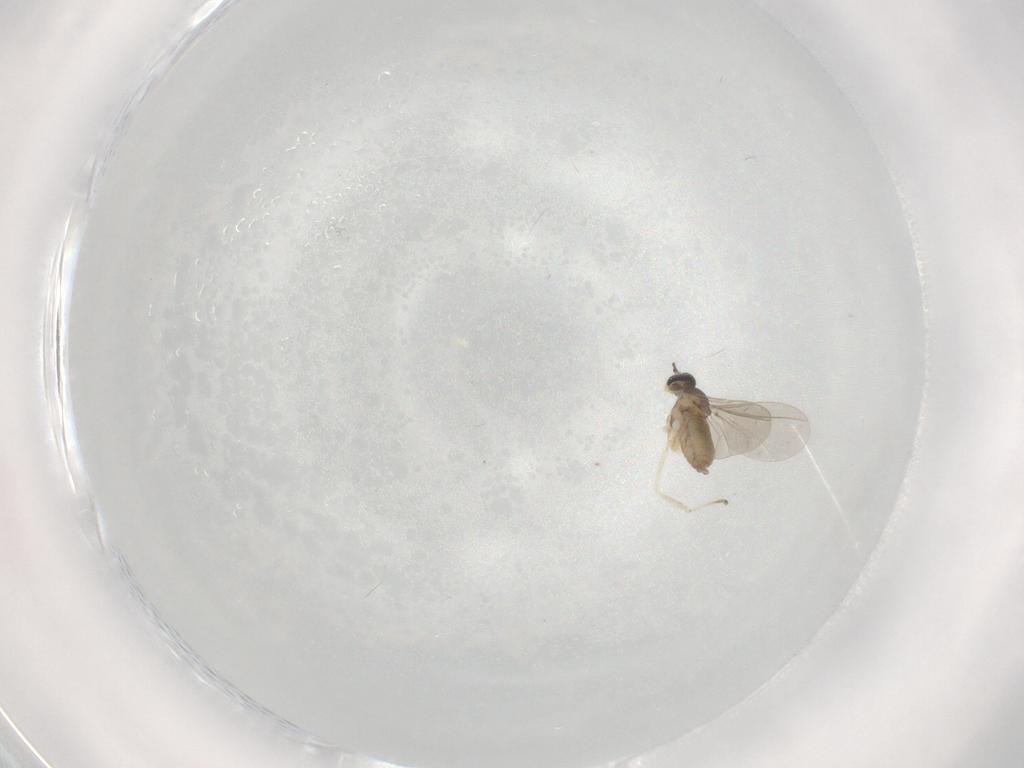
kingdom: Animalia
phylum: Arthropoda
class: Insecta
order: Diptera
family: Cecidomyiidae
